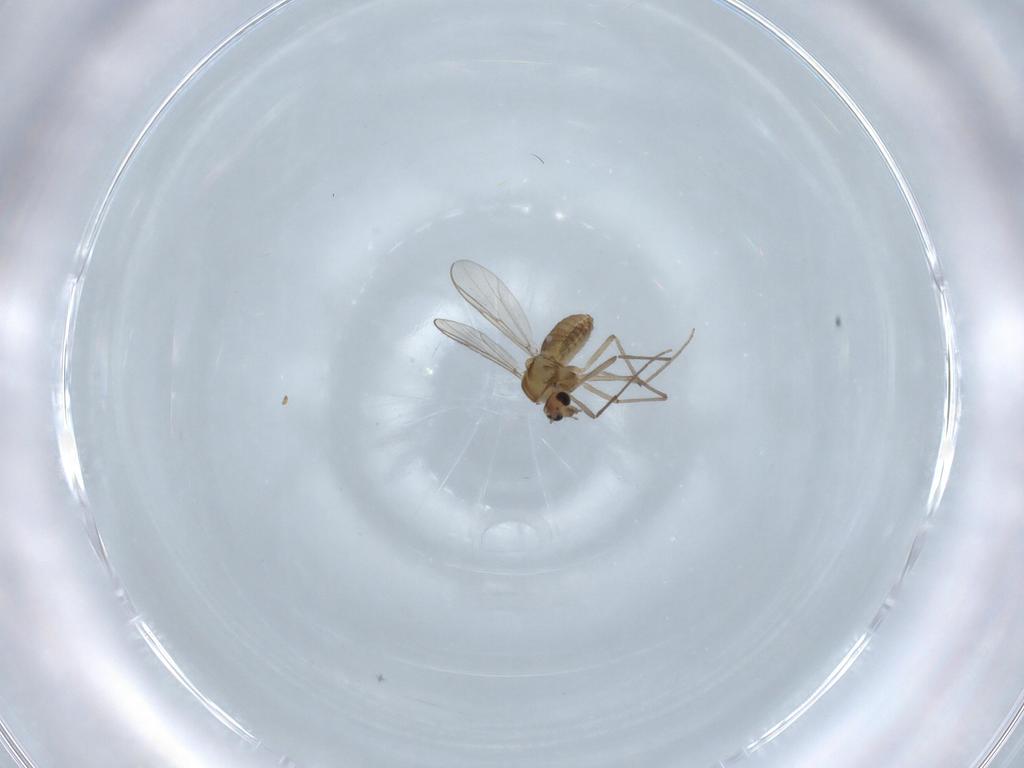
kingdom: Animalia
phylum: Arthropoda
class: Insecta
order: Diptera
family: Chironomidae
